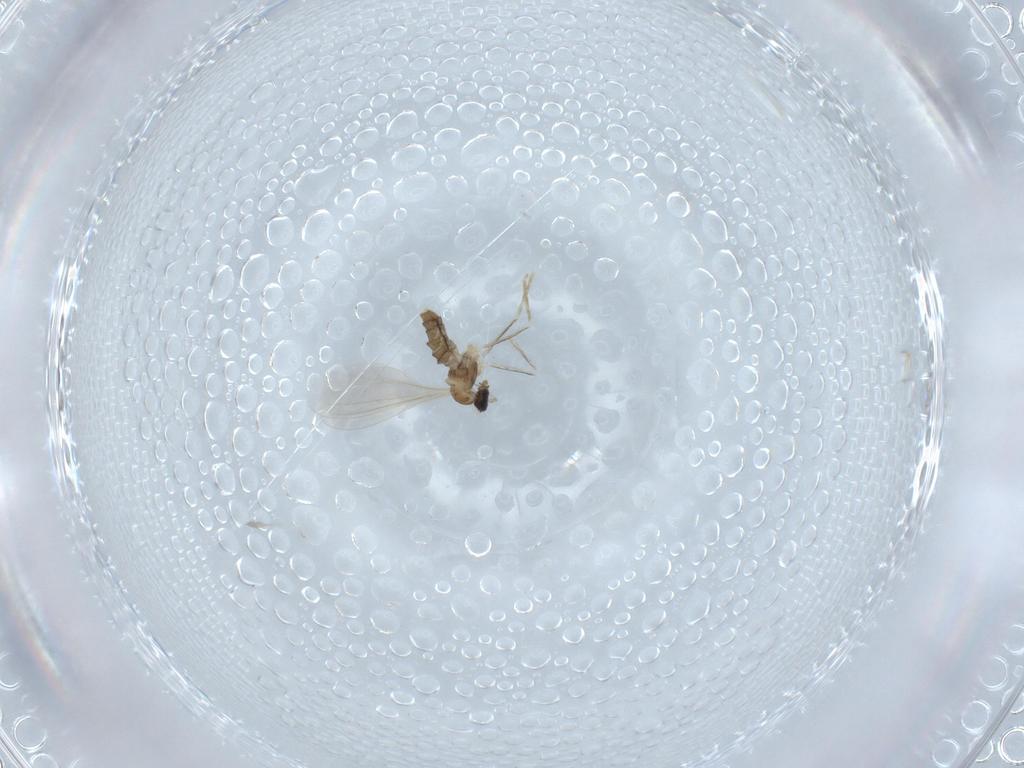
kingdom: Animalia
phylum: Arthropoda
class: Insecta
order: Diptera
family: Cecidomyiidae
